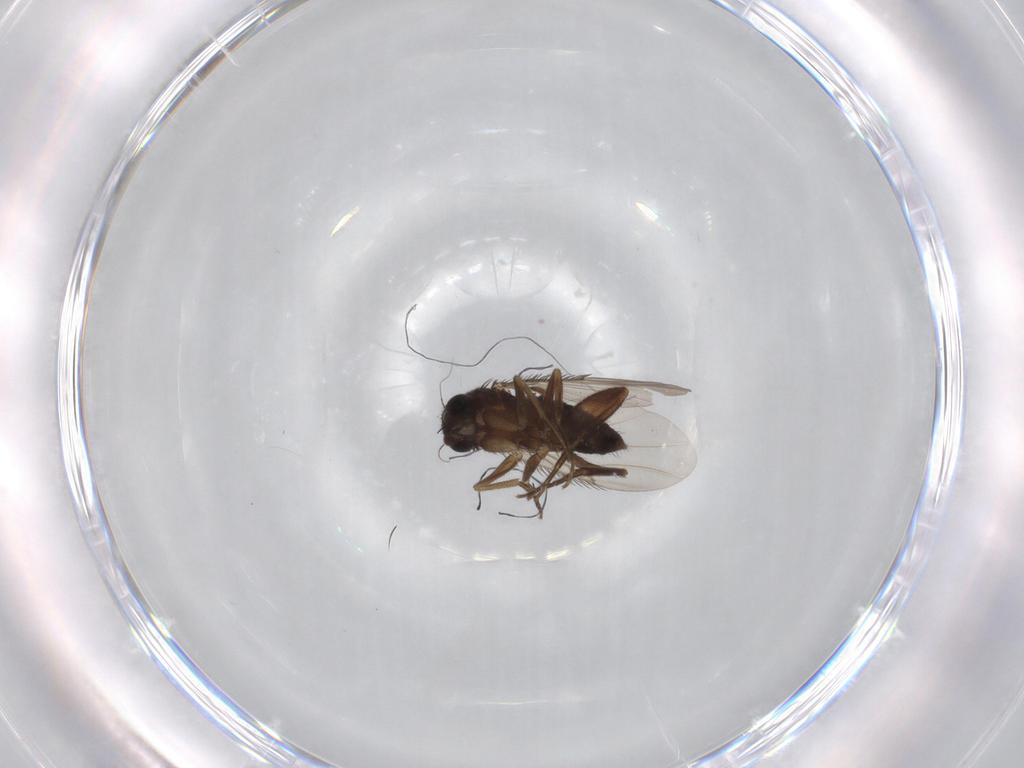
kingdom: Animalia
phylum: Arthropoda
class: Insecta
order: Diptera
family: Phoridae
